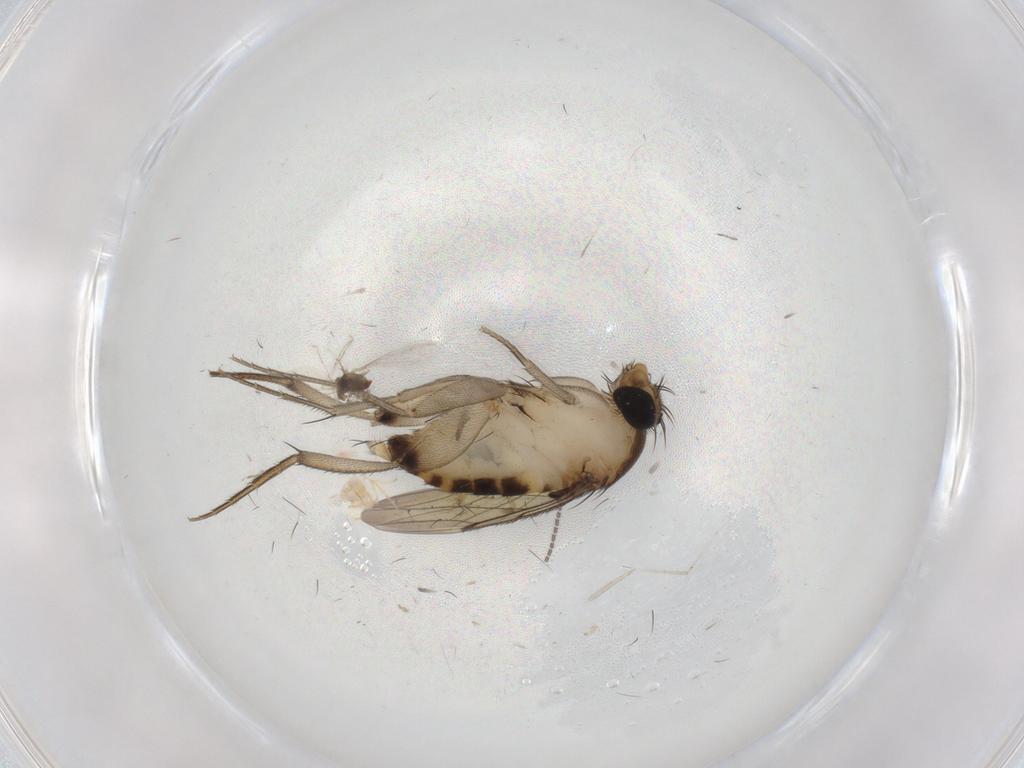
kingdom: Animalia
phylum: Arthropoda
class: Insecta
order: Diptera
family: Phoridae
